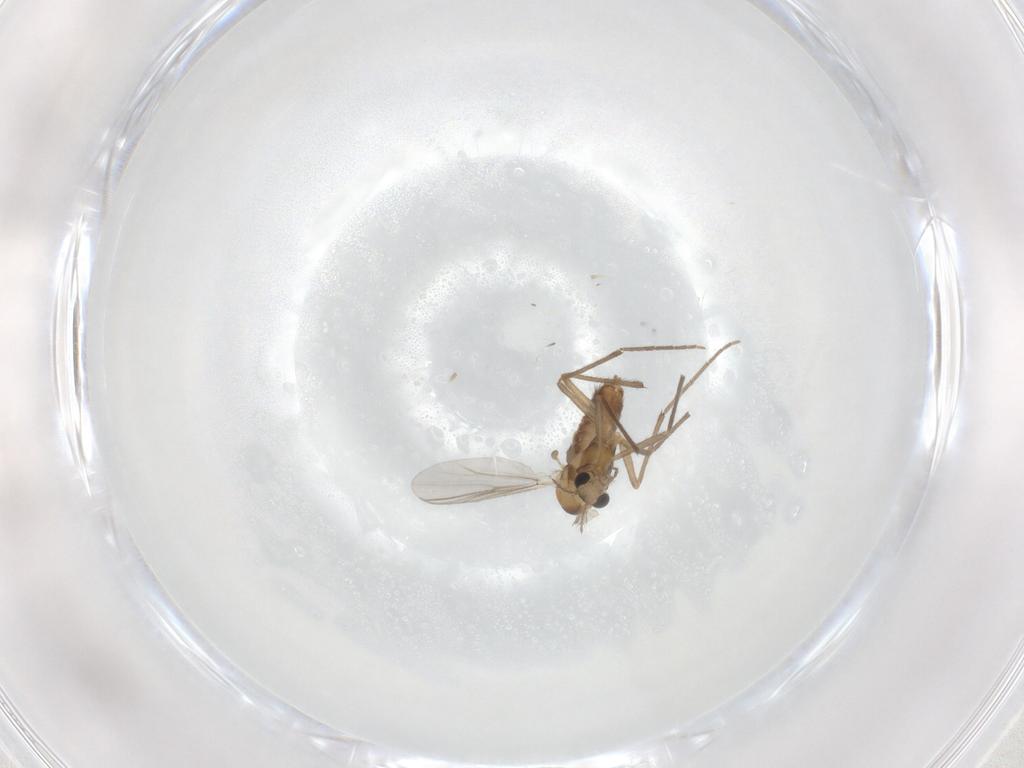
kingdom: Animalia
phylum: Arthropoda
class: Insecta
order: Diptera
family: Chironomidae
